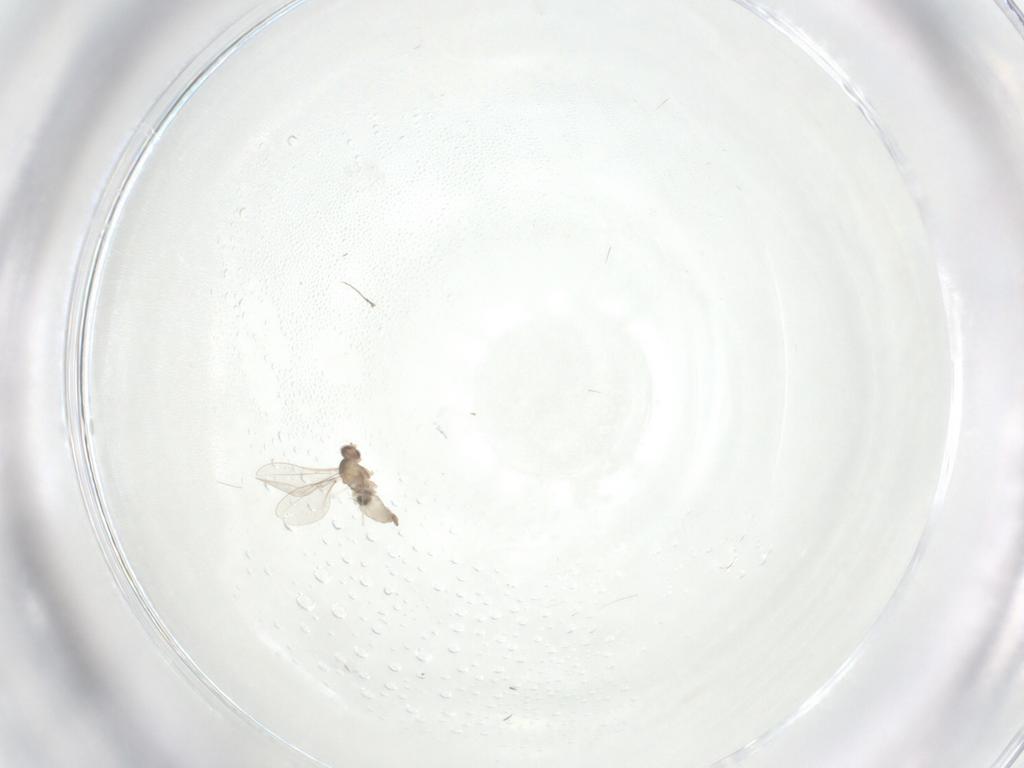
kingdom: Animalia
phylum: Arthropoda
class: Insecta
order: Diptera
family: Cecidomyiidae
